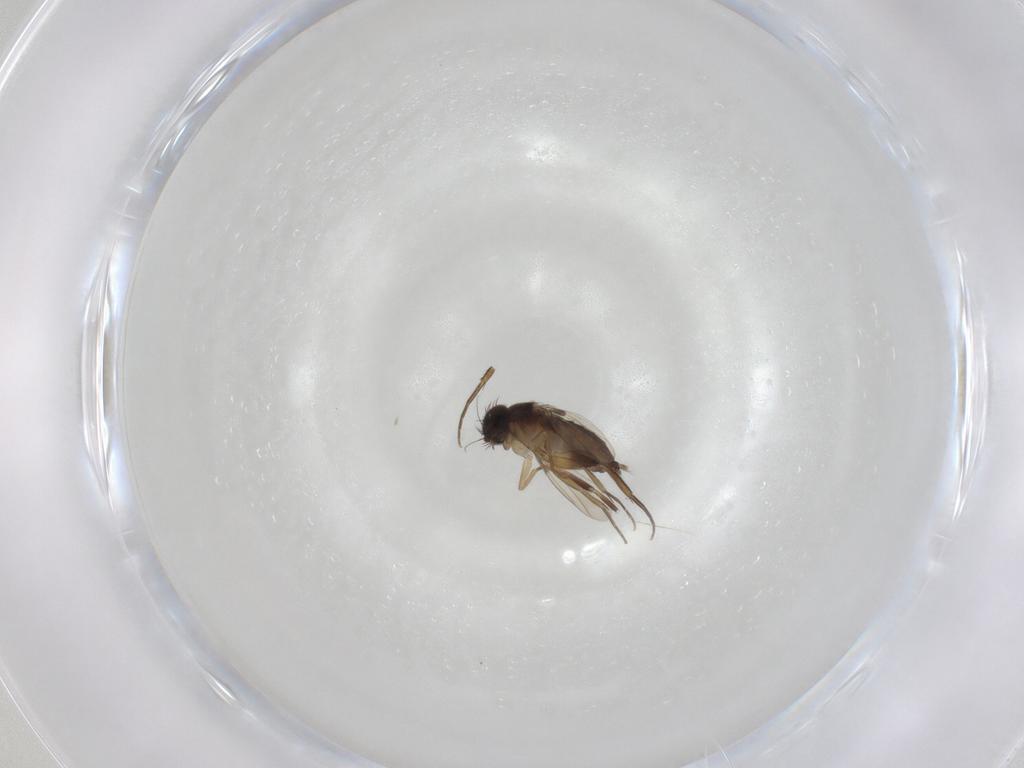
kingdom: Animalia
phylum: Arthropoda
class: Insecta
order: Diptera
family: Phoridae
